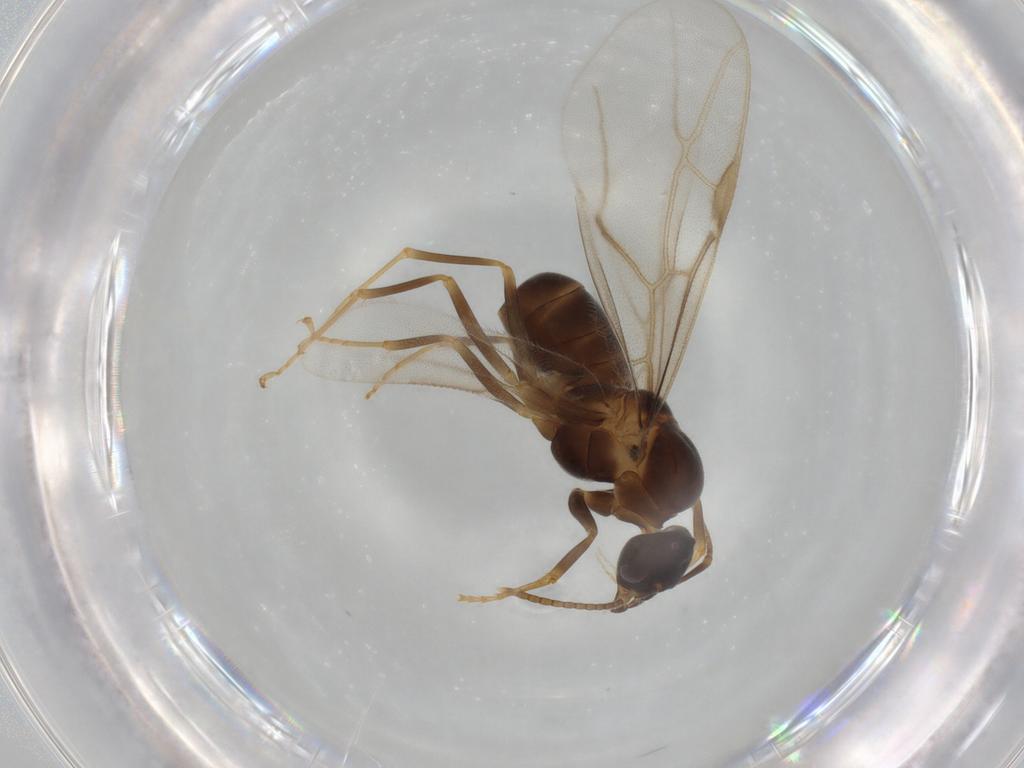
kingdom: Animalia
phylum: Arthropoda
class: Insecta
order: Hymenoptera
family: Formicidae
